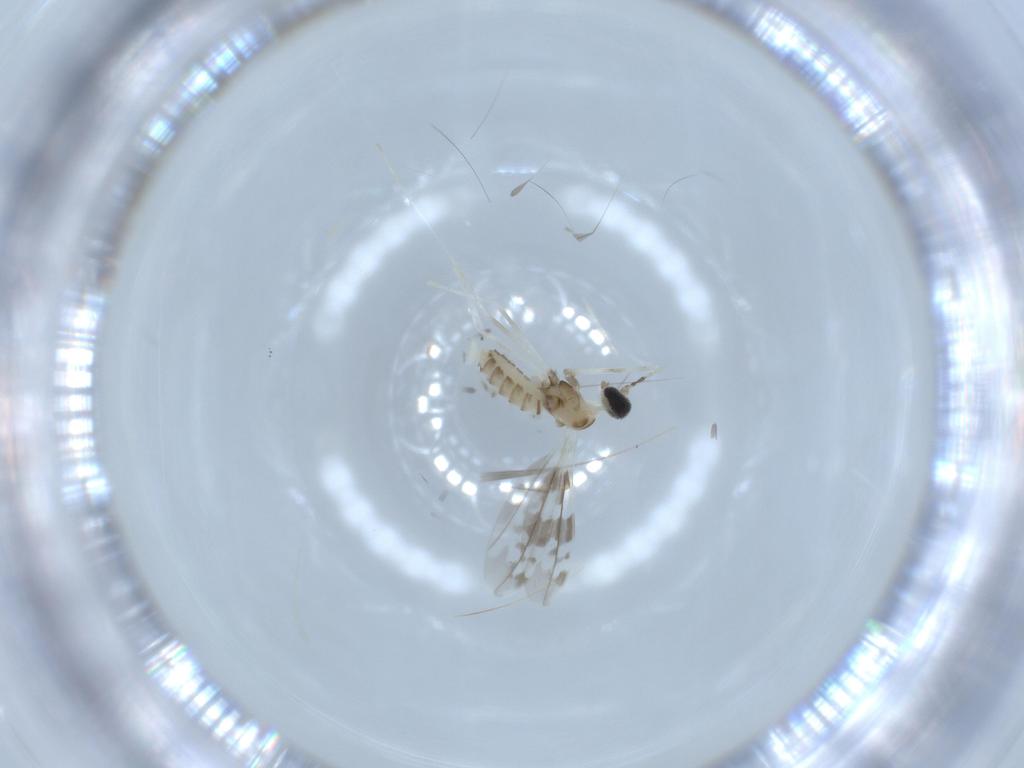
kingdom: Animalia
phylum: Arthropoda
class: Insecta
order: Diptera
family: Cecidomyiidae
